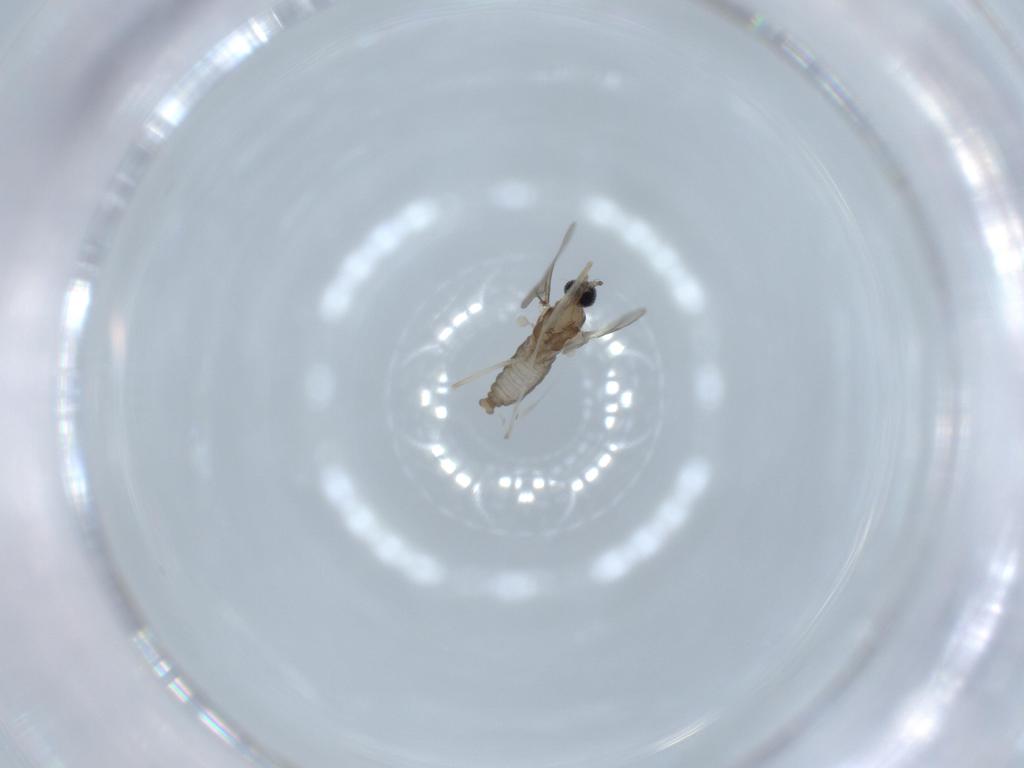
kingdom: Animalia
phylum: Arthropoda
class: Insecta
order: Diptera
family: Cecidomyiidae
